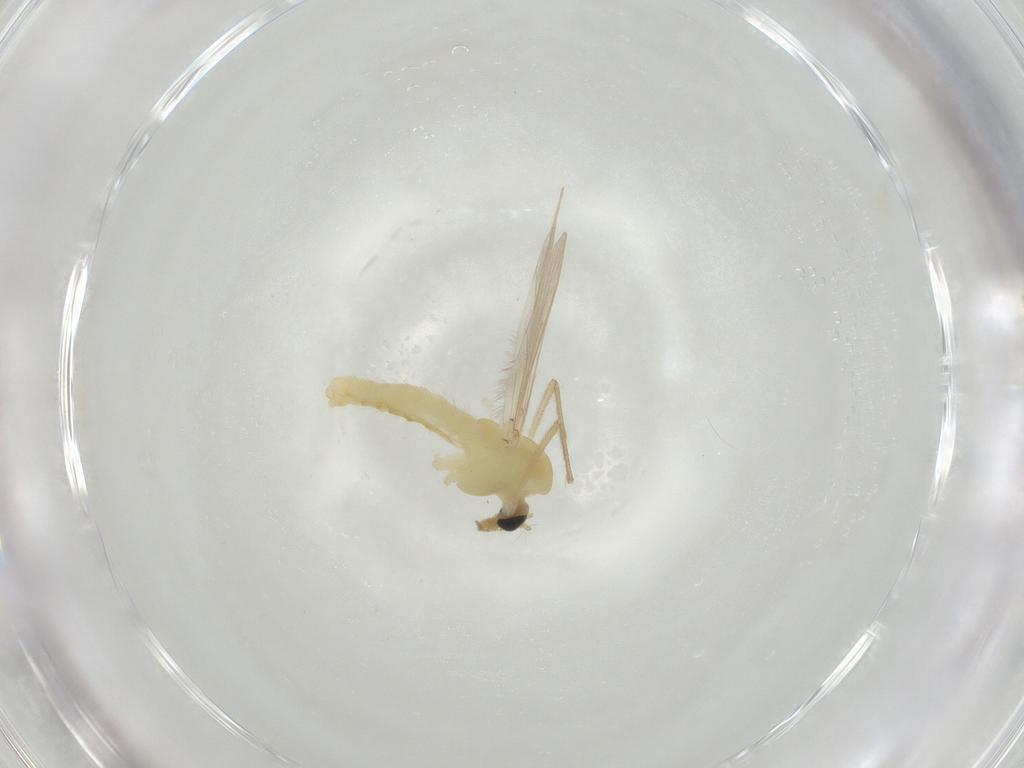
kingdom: Animalia
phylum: Arthropoda
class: Insecta
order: Diptera
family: Chironomidae
